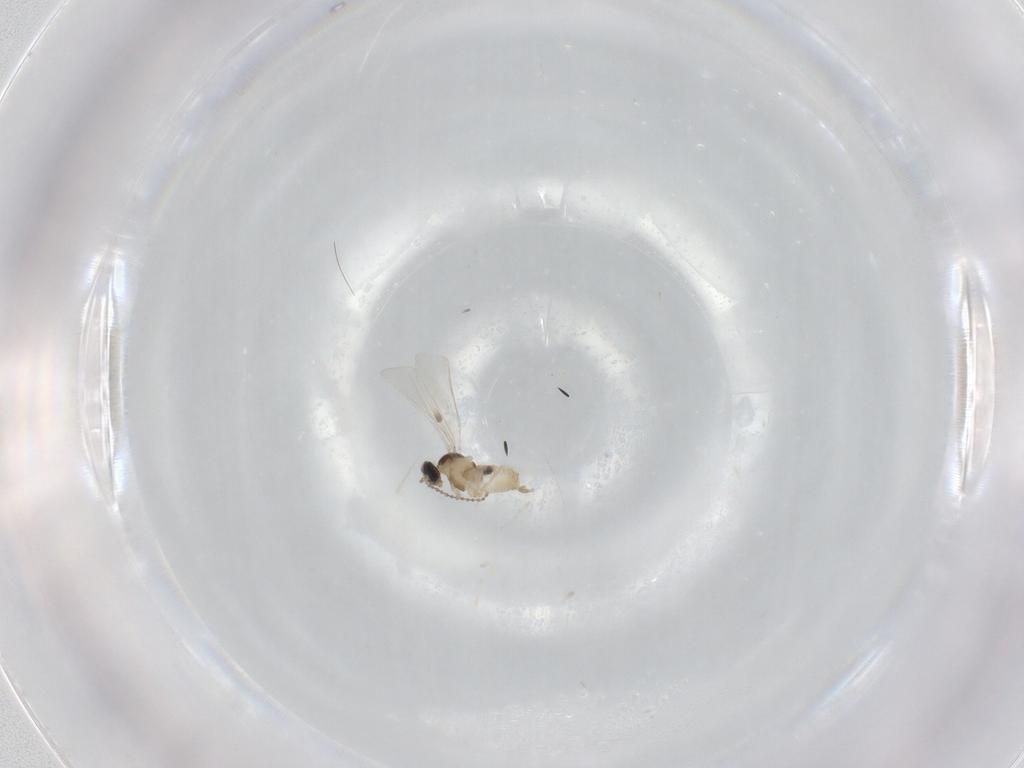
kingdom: Animalia
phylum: Arthropoda
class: Insecta
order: Diptera
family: Cecidomyiidae
